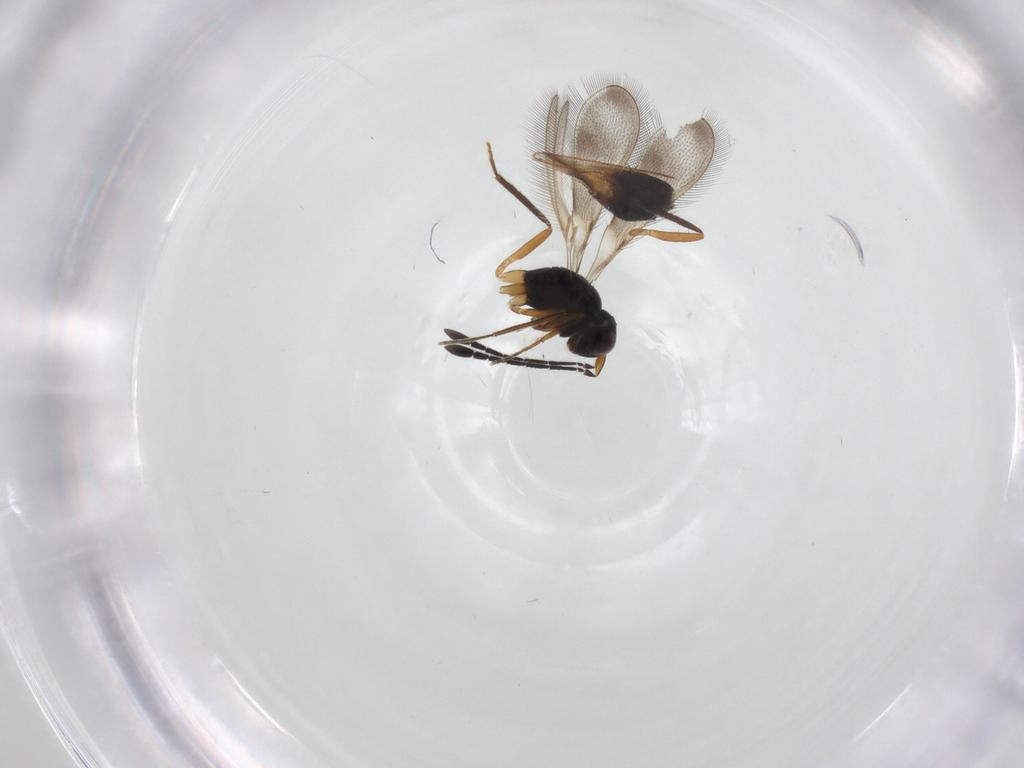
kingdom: Animalia
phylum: Arthropoda
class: Insecta
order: Hymenoptera
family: Mymaridae
